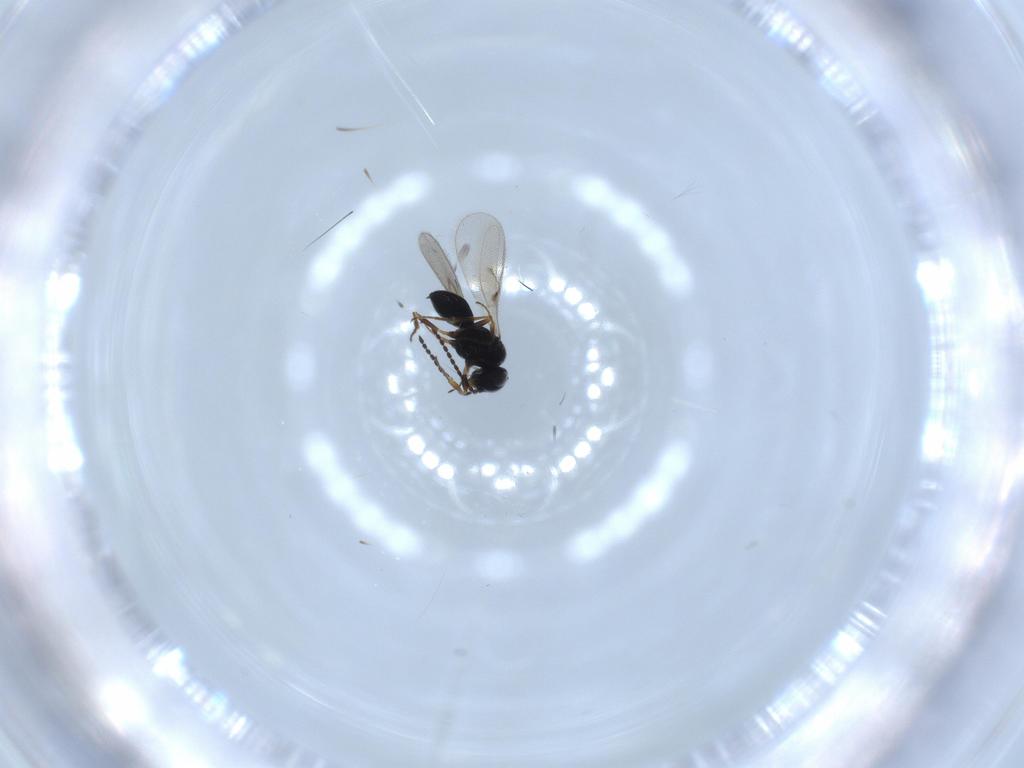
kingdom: Animalia
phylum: Arthropoda
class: Insecta
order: Hymenoptera
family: Scelionidae
